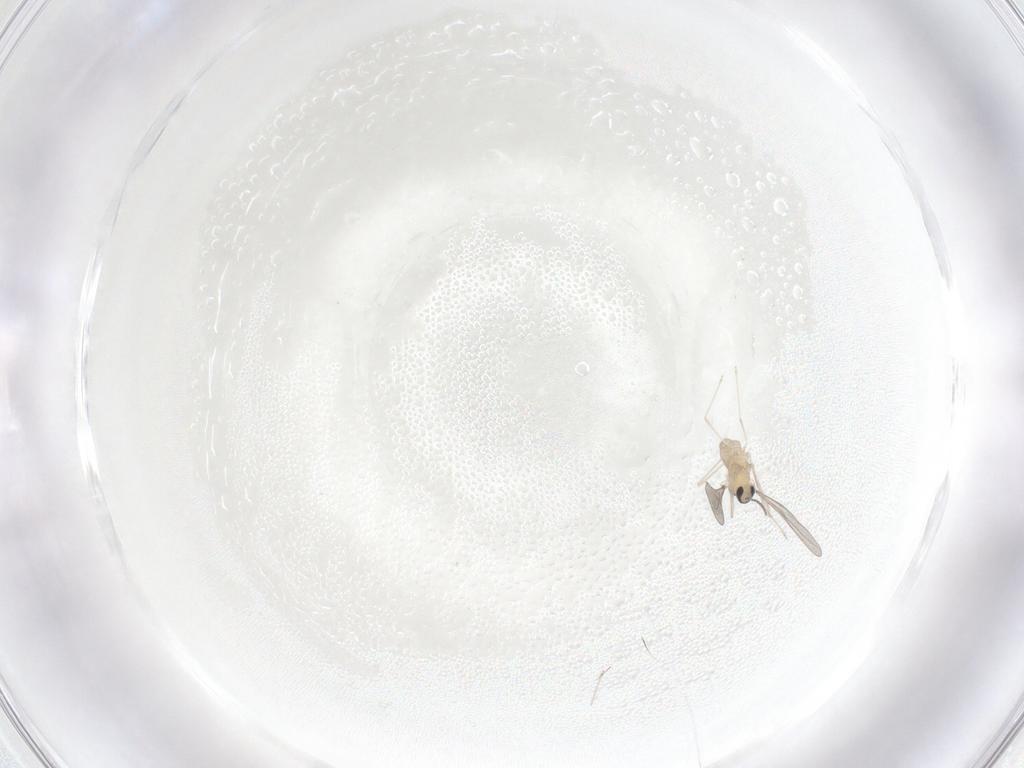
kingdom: Animalia
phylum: Arthropoda
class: Insecta
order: Diptera
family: Cecidomyiidae
